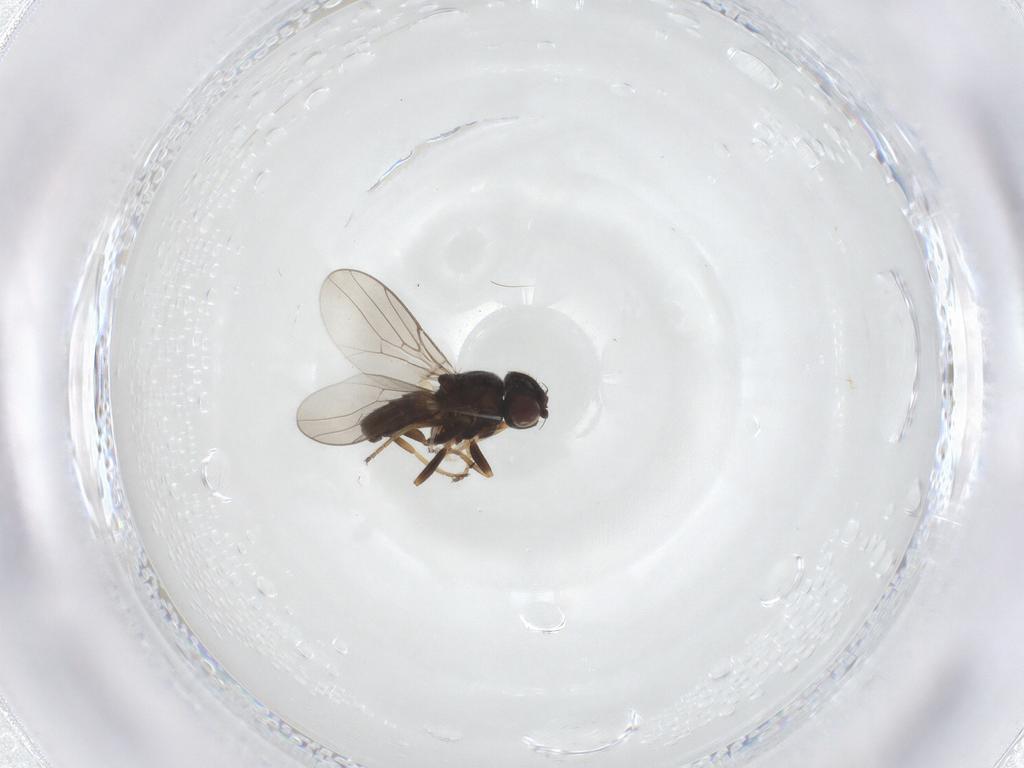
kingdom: Animalia
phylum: Arthropoda
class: Insecta
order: Diptera
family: Chloropidae
